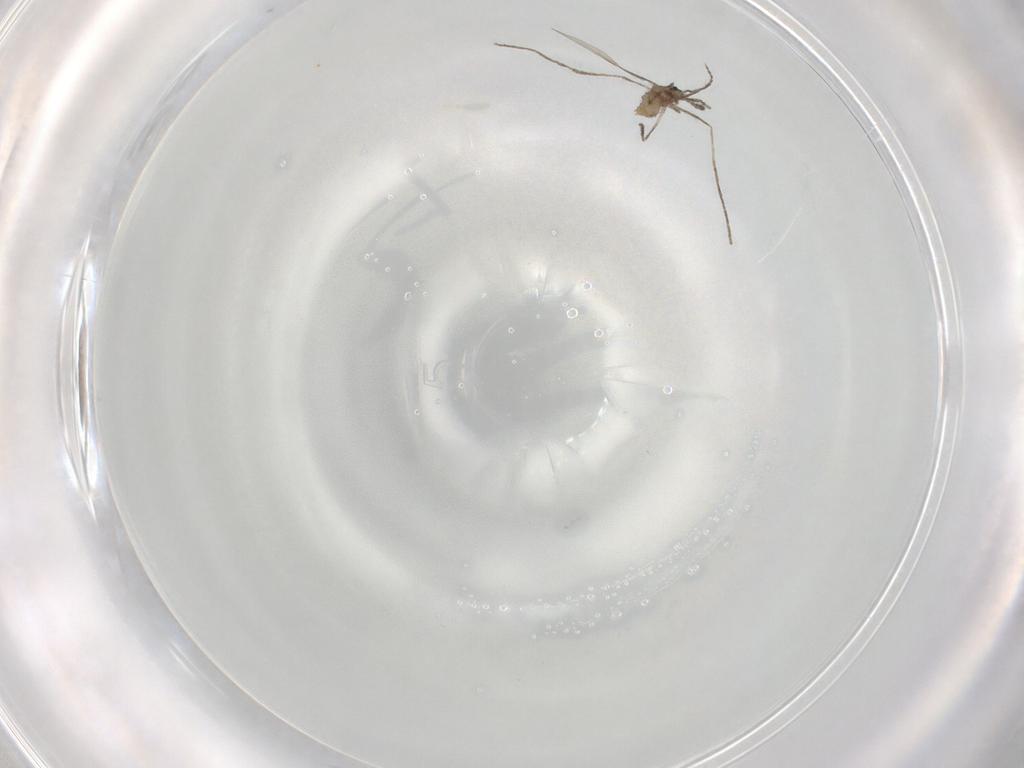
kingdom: Animalia
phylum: Arthropoda
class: Insecta
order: Diptera
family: Cecidomyiidae
